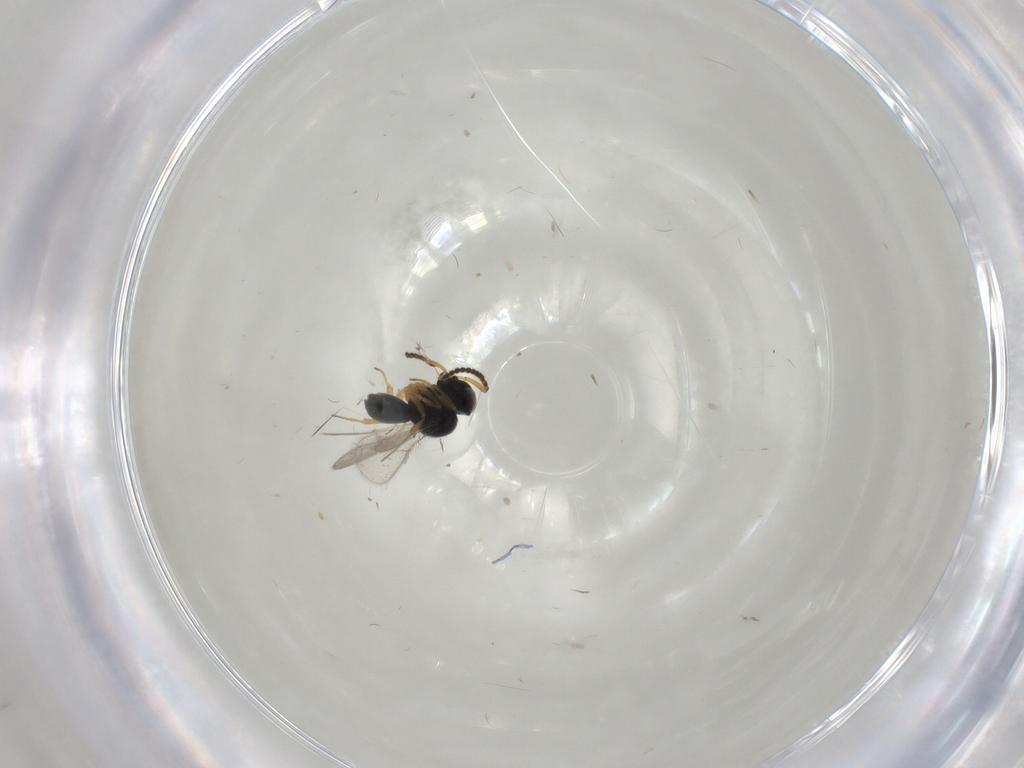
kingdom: Animalia
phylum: Arthropoda
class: Insecta
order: Hymenoptera
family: Scelionidae
